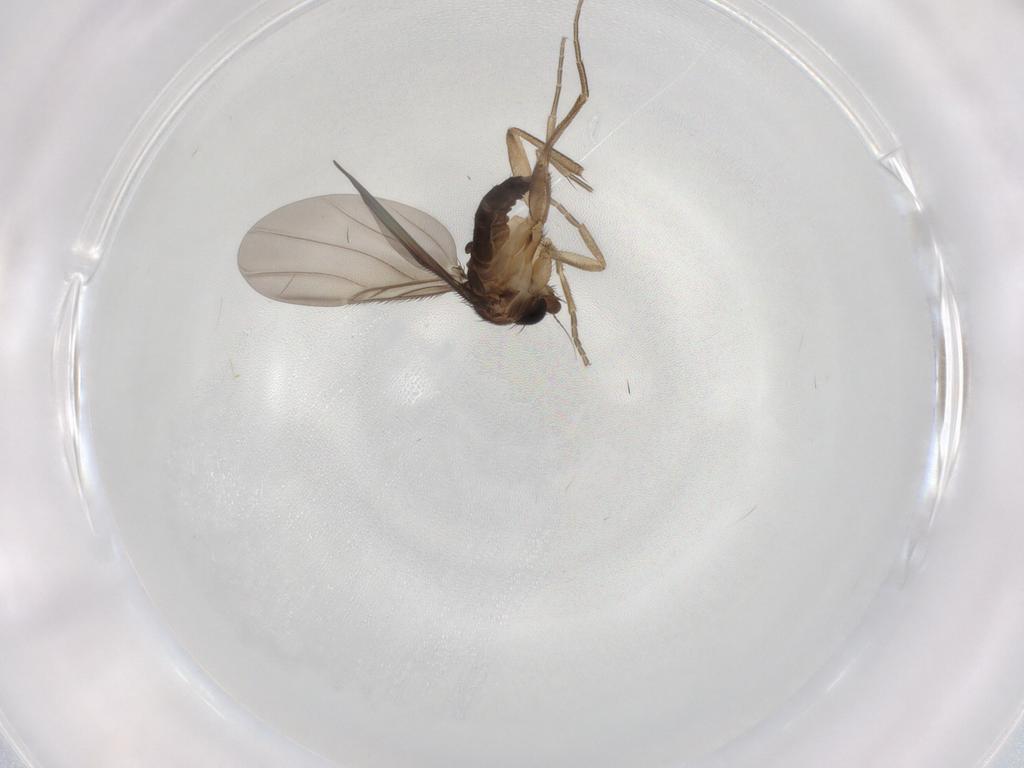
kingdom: Animalia
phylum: Arthropoda
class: Insecta
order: Diptera
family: Phoridae
